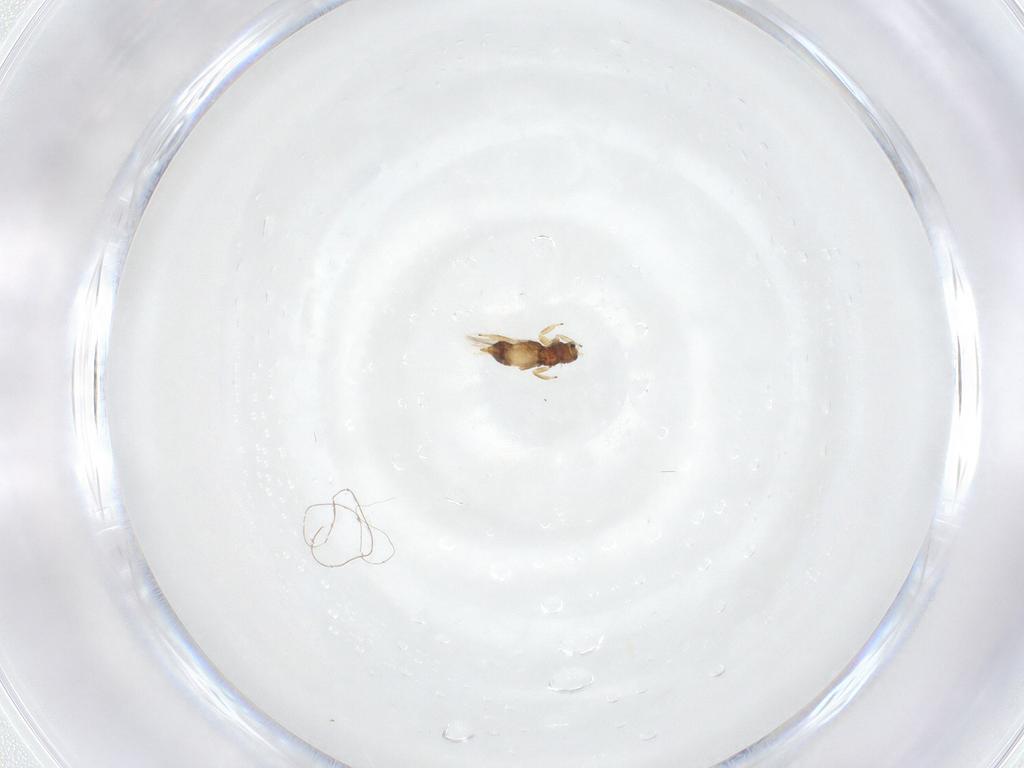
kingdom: Animalia
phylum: Arthropoda
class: Insecta
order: Thysanoptera
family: Thripidae
